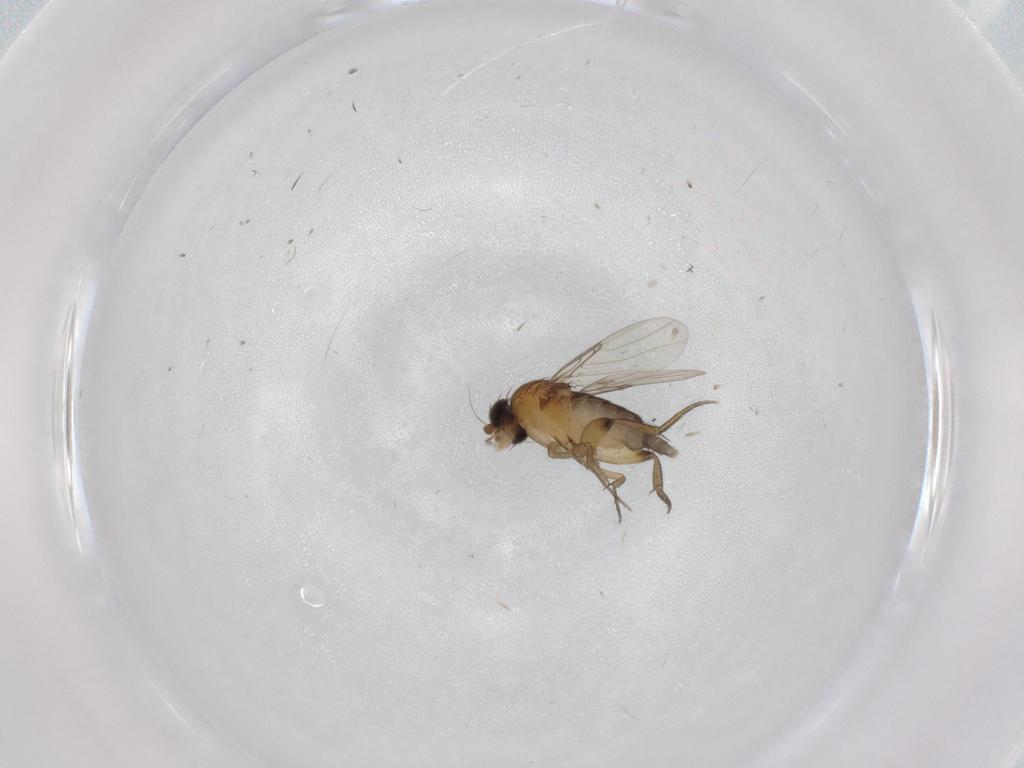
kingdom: Animalia
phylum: Arthropoda
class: Insecta
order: Diptera
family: Phoridae
